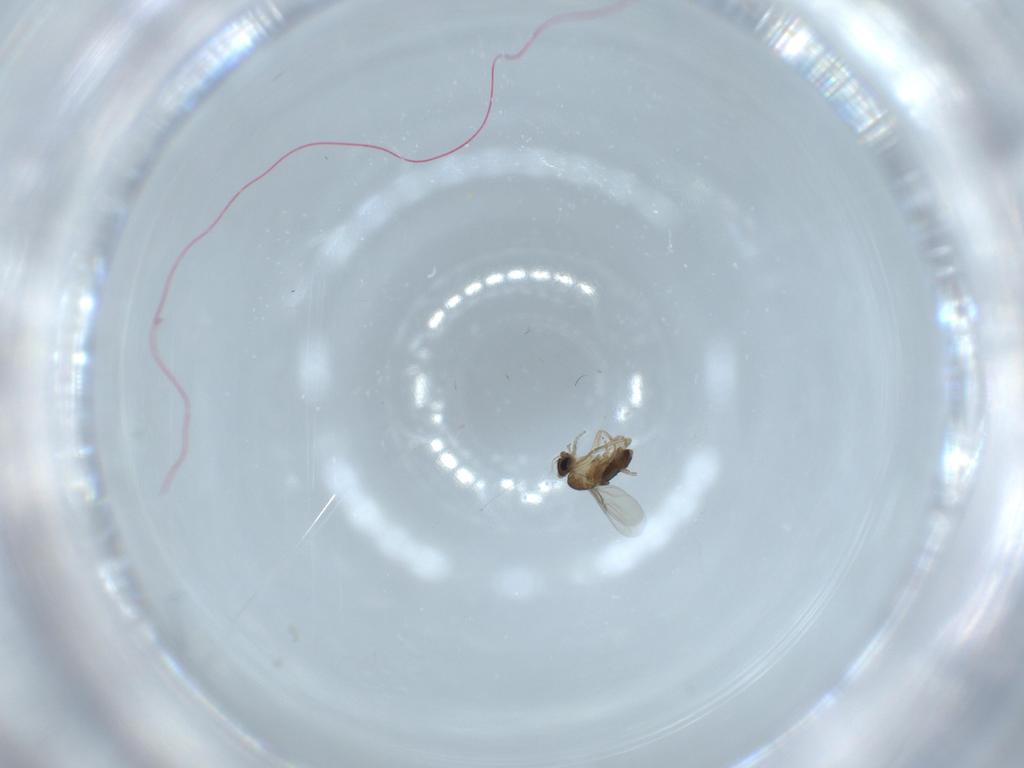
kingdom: Animalia
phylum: Arthropoda
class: Insecta
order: Diptera
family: Phoridae
